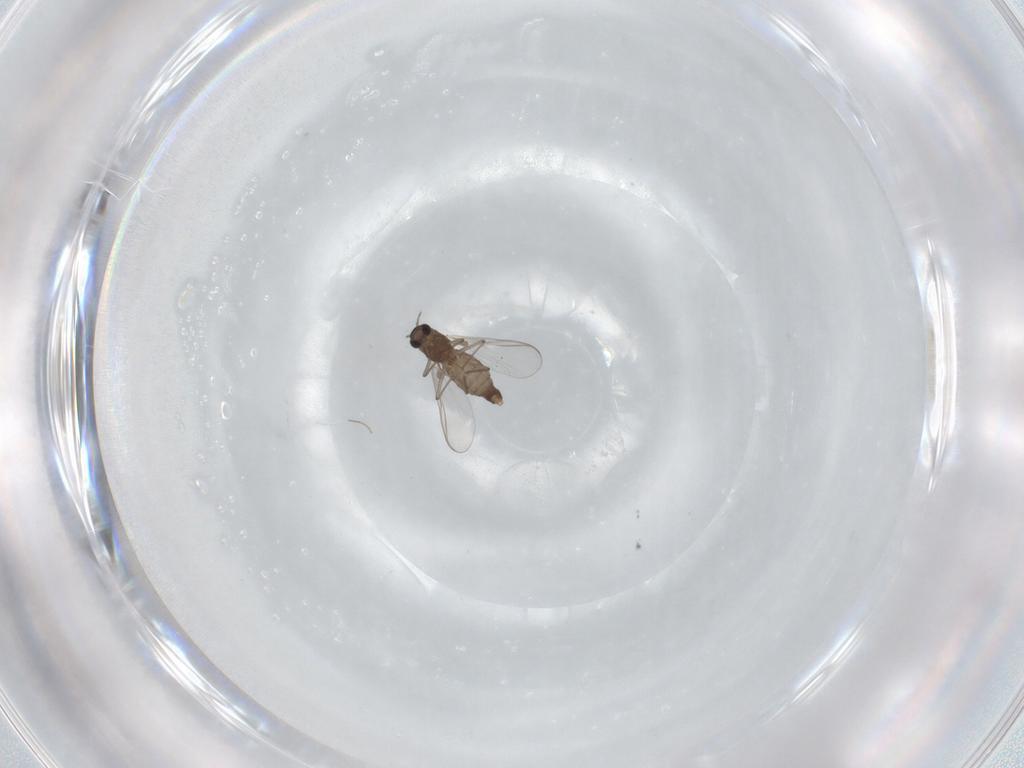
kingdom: Animalia
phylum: Arthropoda
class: Insecta
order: Diptera
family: Chironomidae
